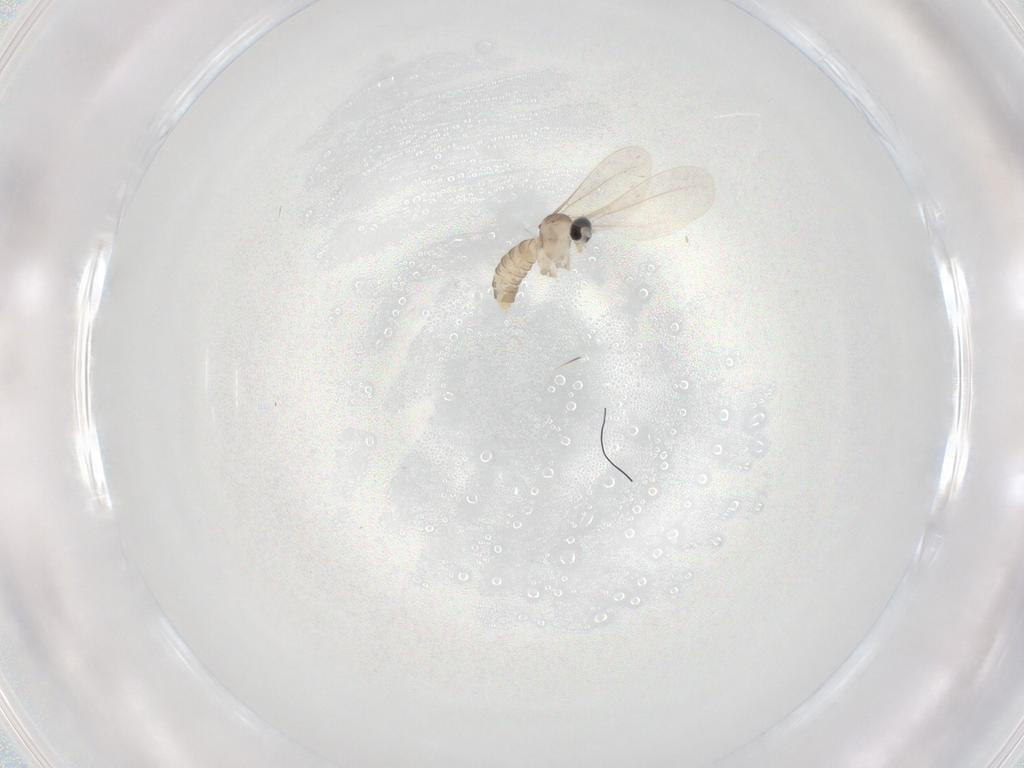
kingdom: Animalia
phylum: Arthropoda
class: Insecta
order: Diptera
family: Cecidomyiidae
